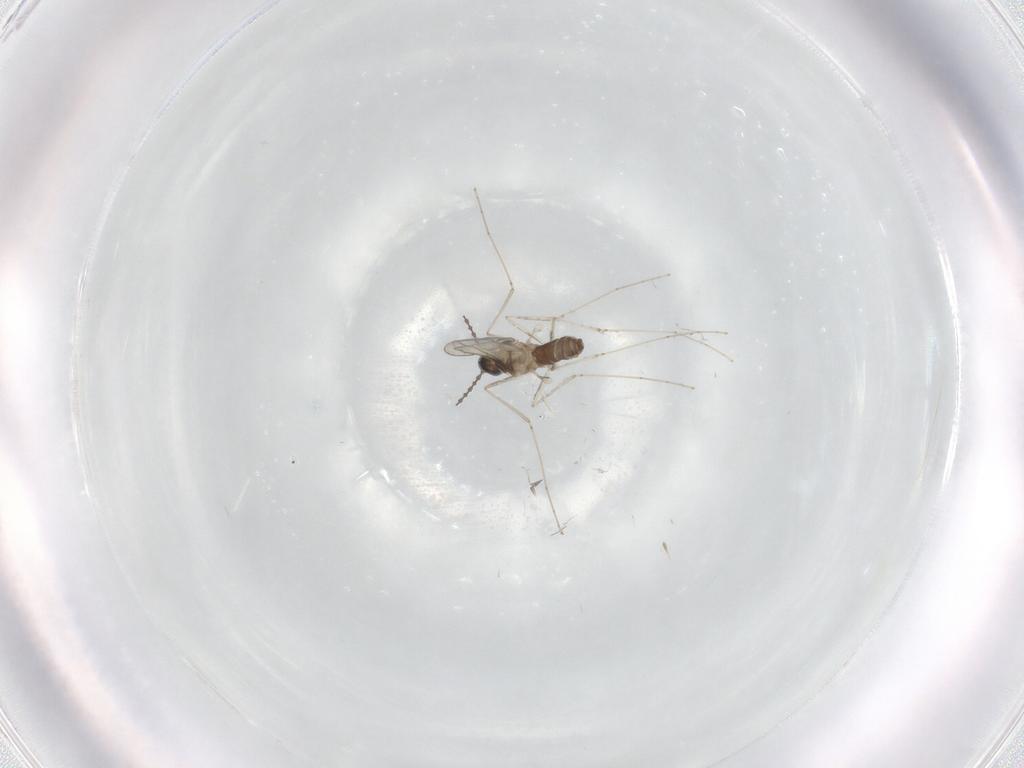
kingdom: Animalia
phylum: Arthropoda
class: Insecta
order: Diptera
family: Cecidomyiidae
